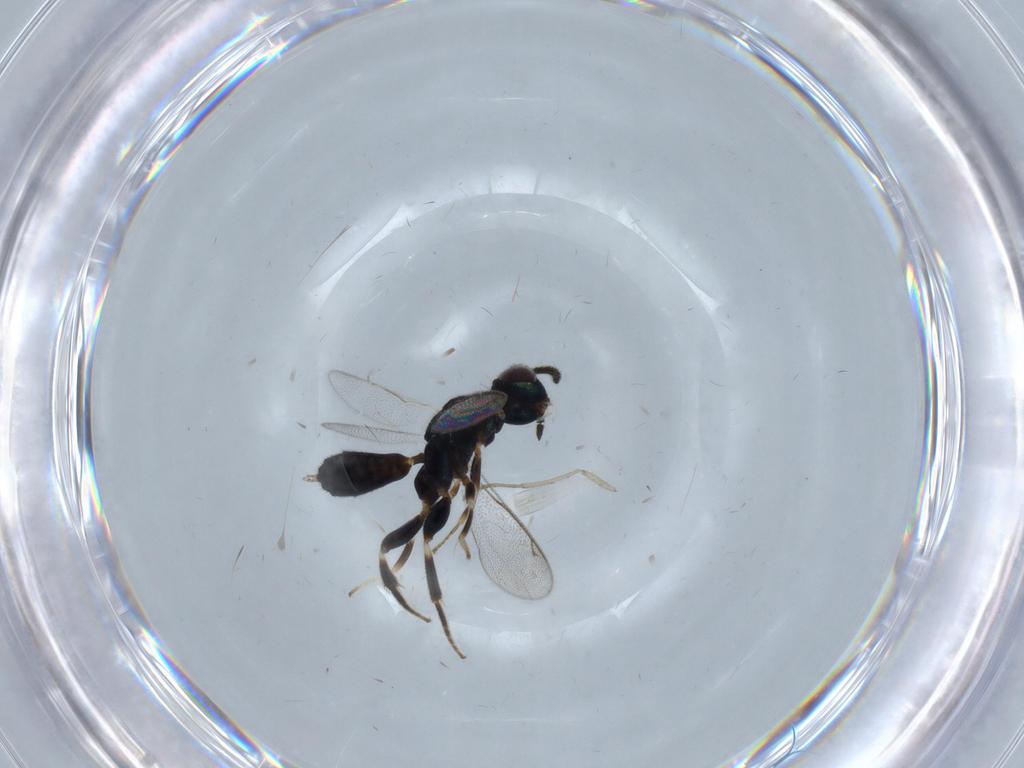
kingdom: Animalia
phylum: Arthropoda
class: Insecta
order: Hymenoptera
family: Cleonyminae
